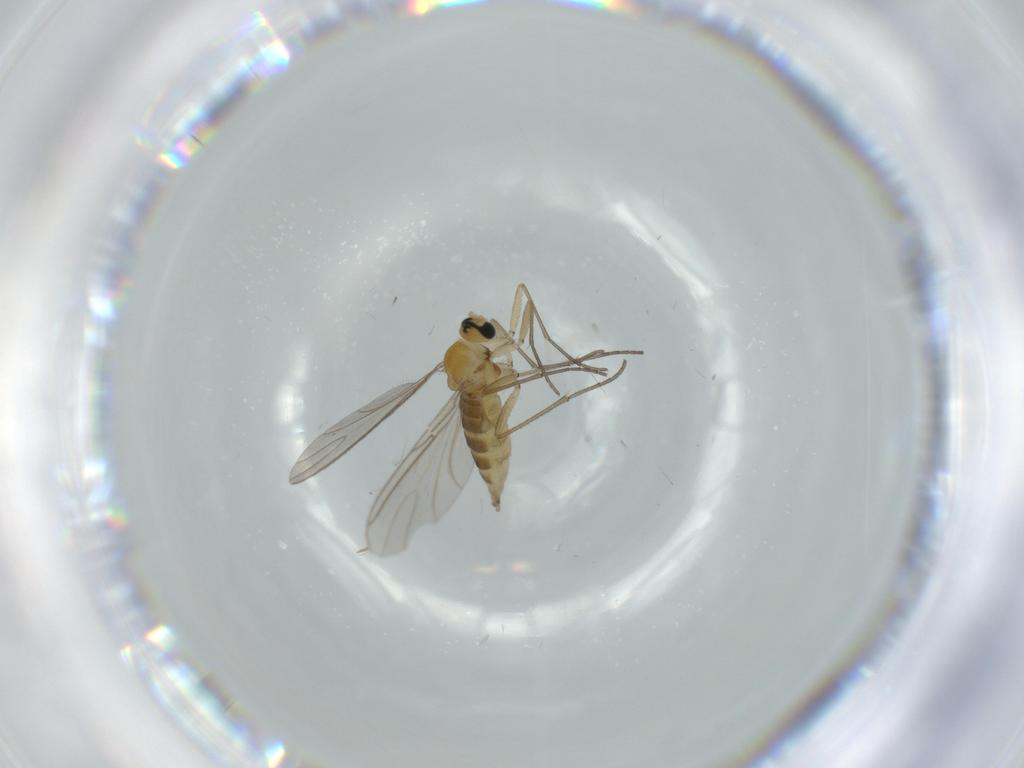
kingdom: Animalia
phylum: Arthropoda
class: Insecta
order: Diptera
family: Sciaridae
